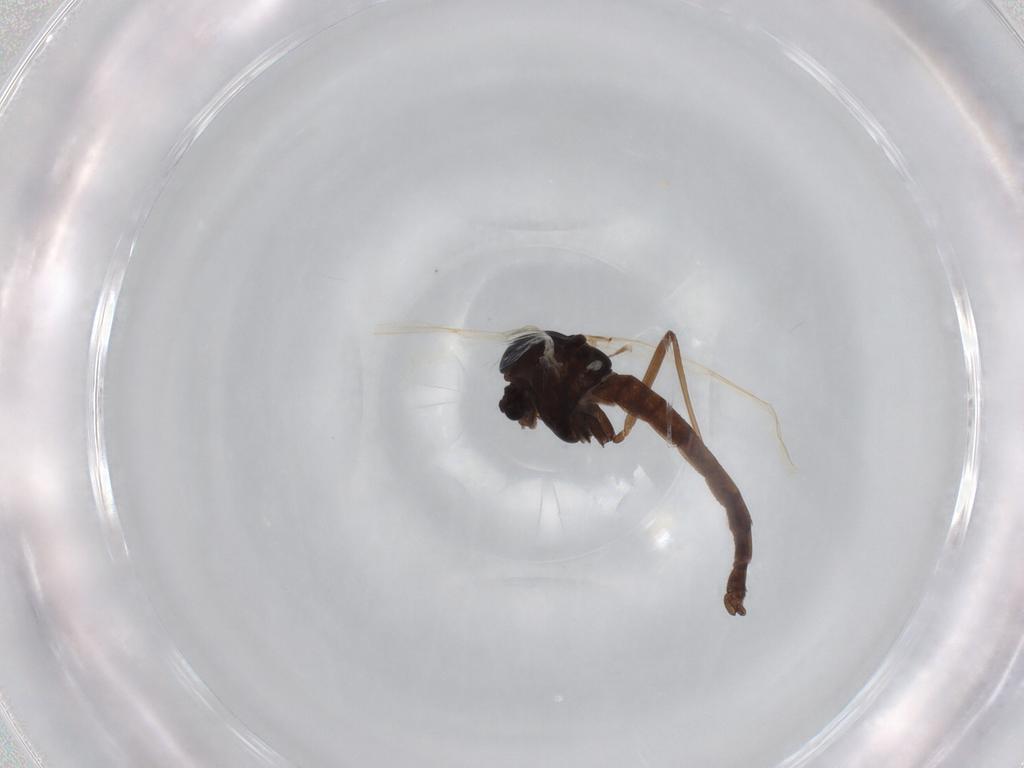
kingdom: Animalia
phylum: Arthropoda
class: Insecta
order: Diptera
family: Chironomidae
